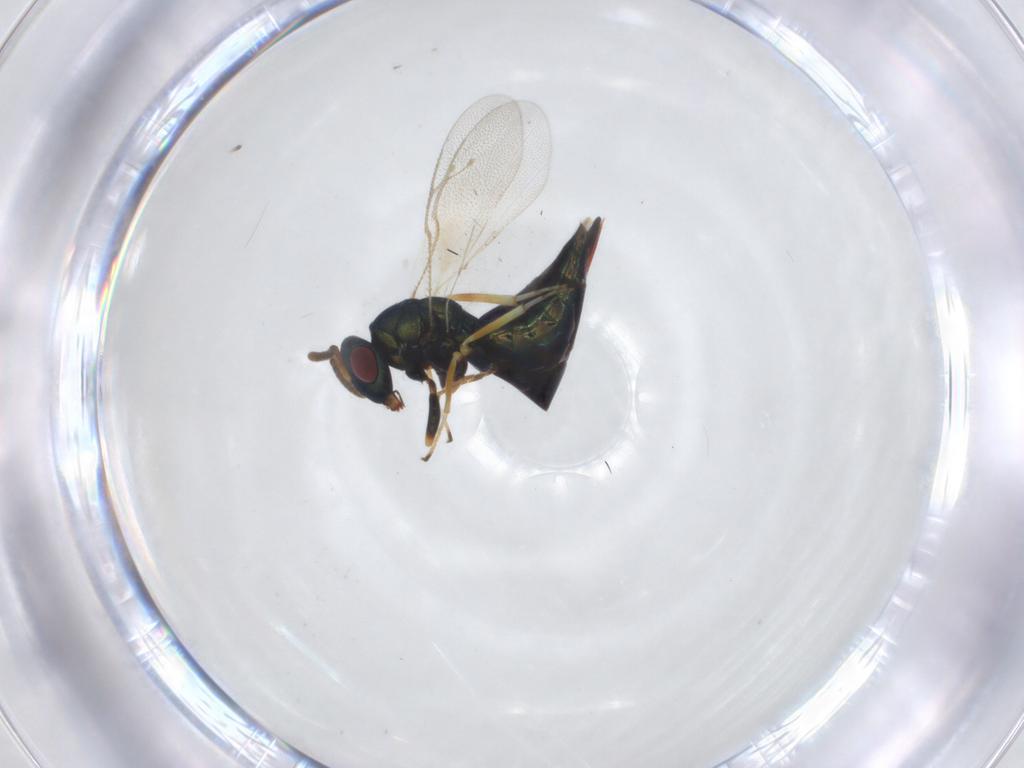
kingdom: Animalia
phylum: Arthropoda
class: Insecta
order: Hymenoptera
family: Pteromalidae
